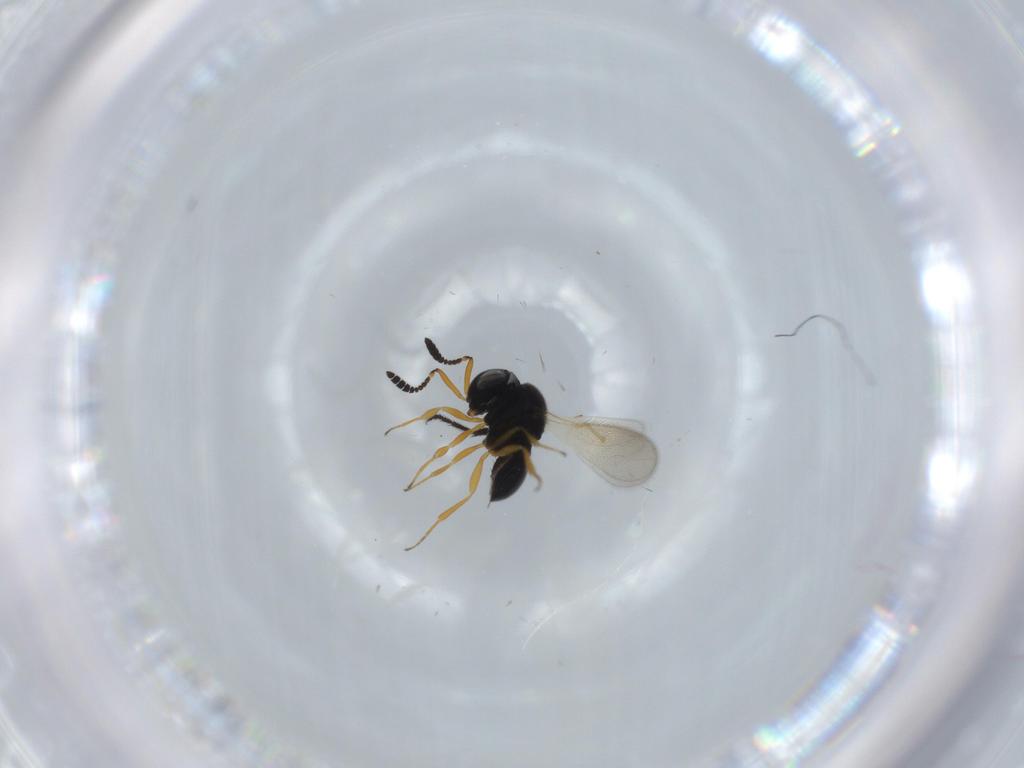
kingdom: Animalia
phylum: Arthropoda
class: Insecta
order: Hymenoptera
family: Scelionidae
